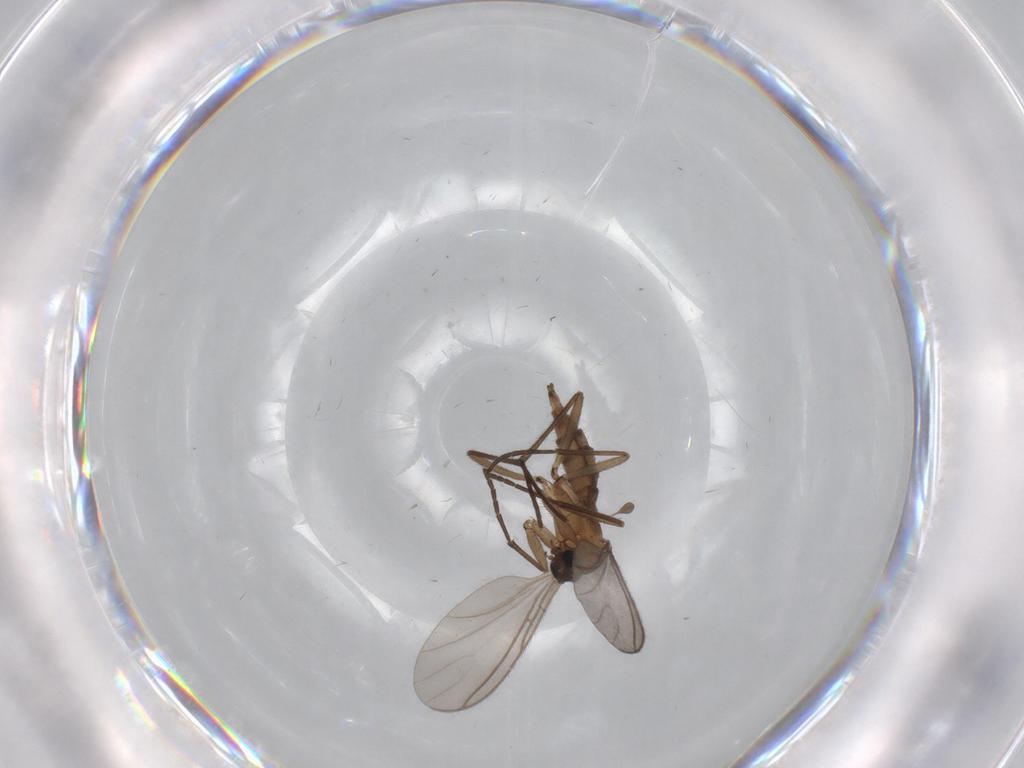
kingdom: Animalia
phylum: Arthropoda
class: Insecta
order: Diptera
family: Sciaridae
